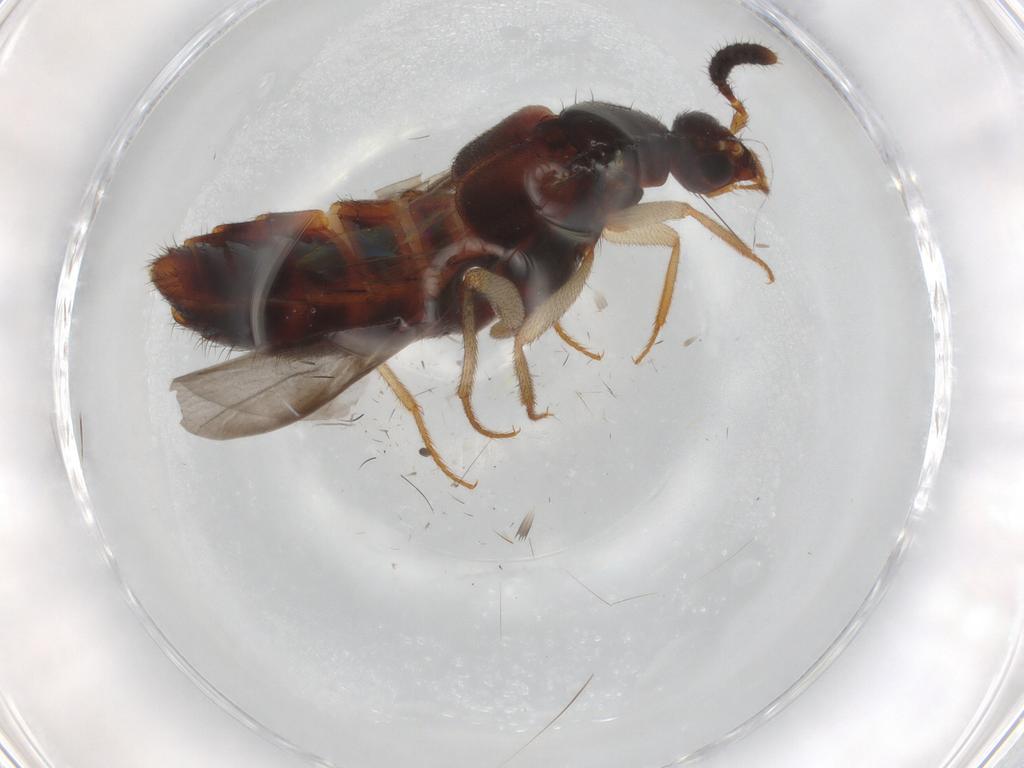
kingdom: Animalia
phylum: Arthropoda
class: Insecta
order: Coleoptera
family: Staphylinidae
